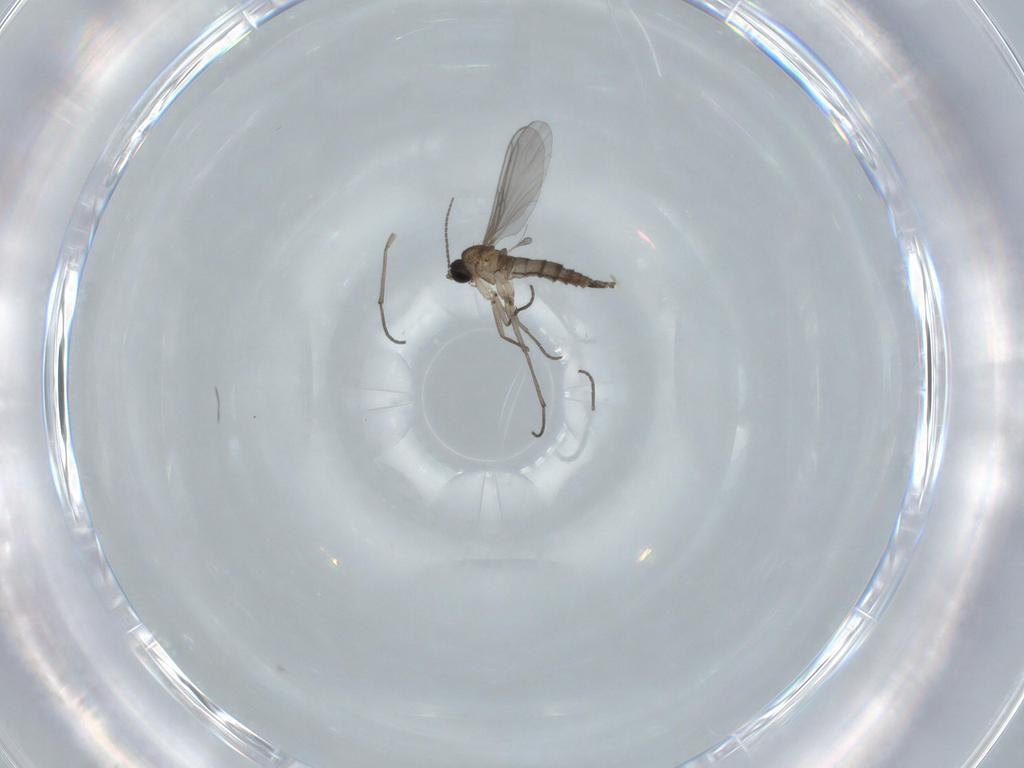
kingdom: Animalia
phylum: Arthropoda
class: Insecta
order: Diptera
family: Sciaridae
